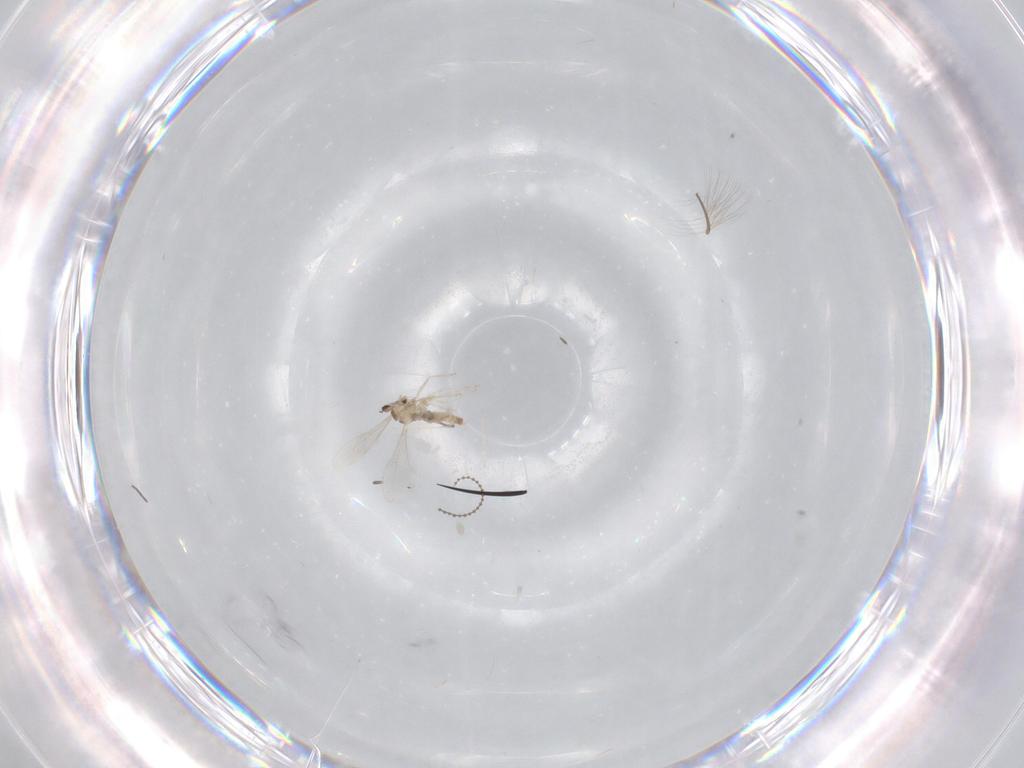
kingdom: Animalia
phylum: Arthropoda
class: Insecta
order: Diptera
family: Cecidomyiidae
